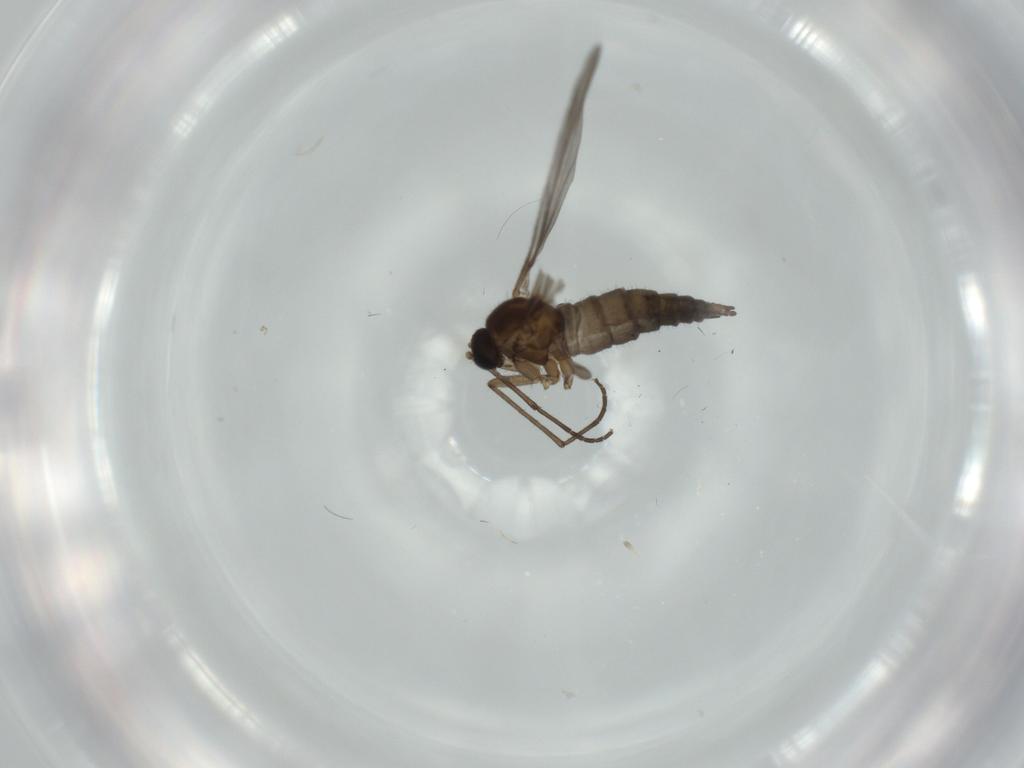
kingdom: Animalia
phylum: Arthropoda
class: Insecta
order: Diptera
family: Sciaridae
